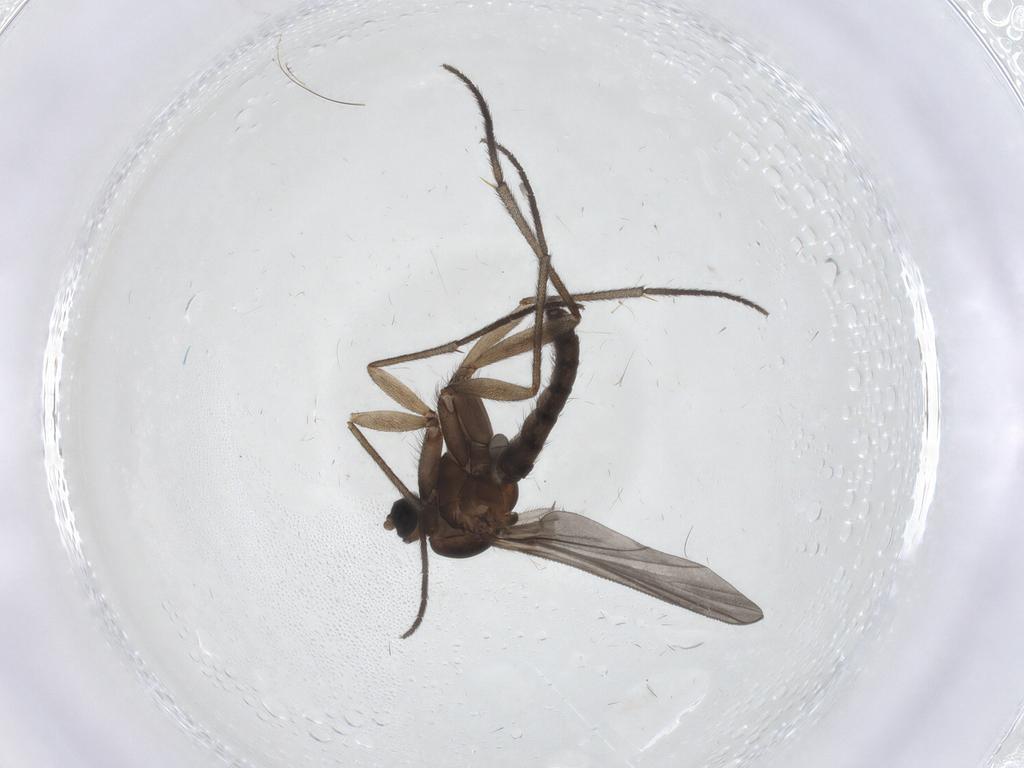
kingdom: Animalia
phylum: Arthropoda
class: Insecta
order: Diptera
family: Sciaridae
